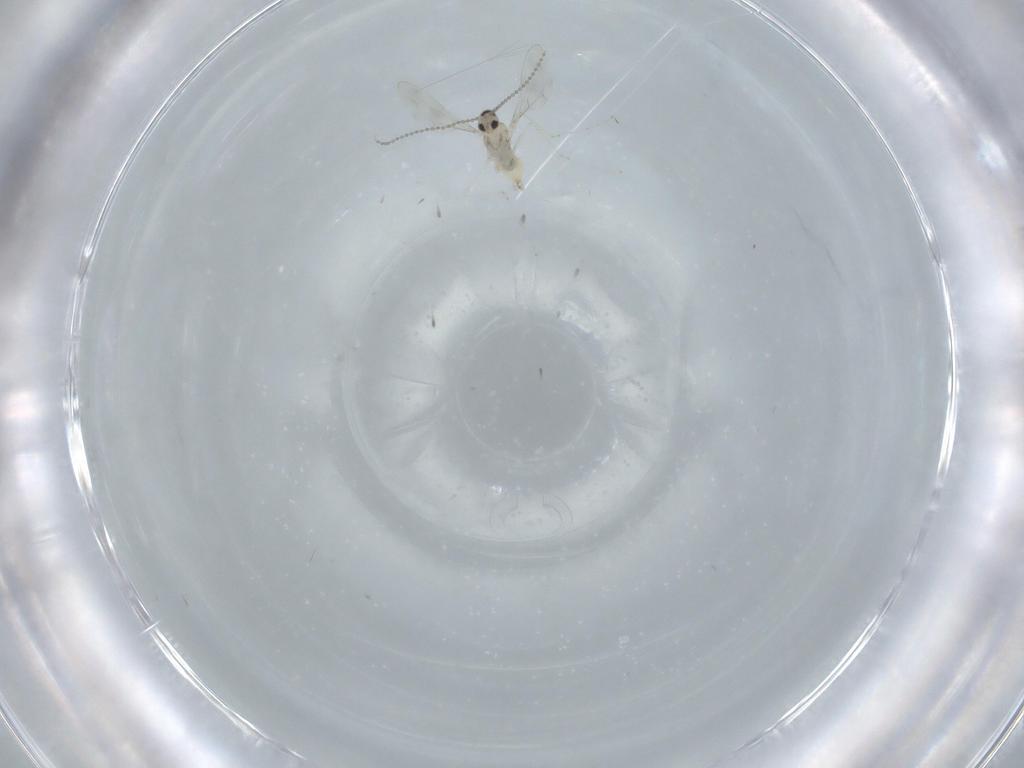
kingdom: Animalia
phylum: Arthropoda
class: Insecta
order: Diptera
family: Cecidomyiidae
